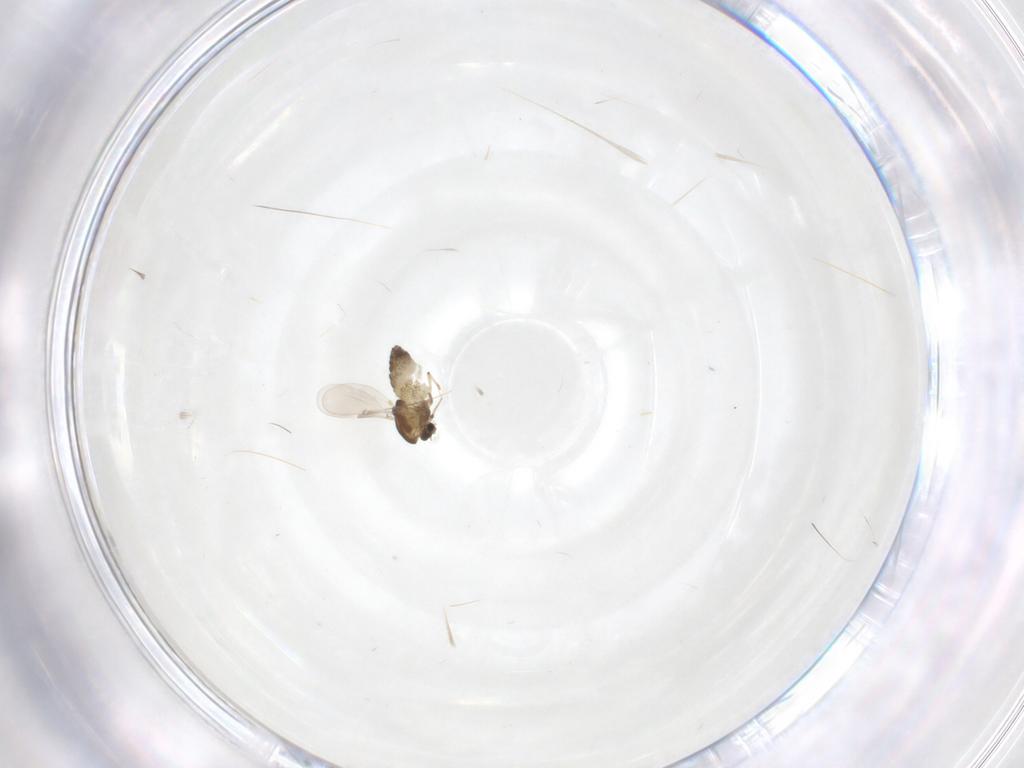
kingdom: Animalia
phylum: Arthropoda
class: Insecta
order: Diptera
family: Chironomidae
